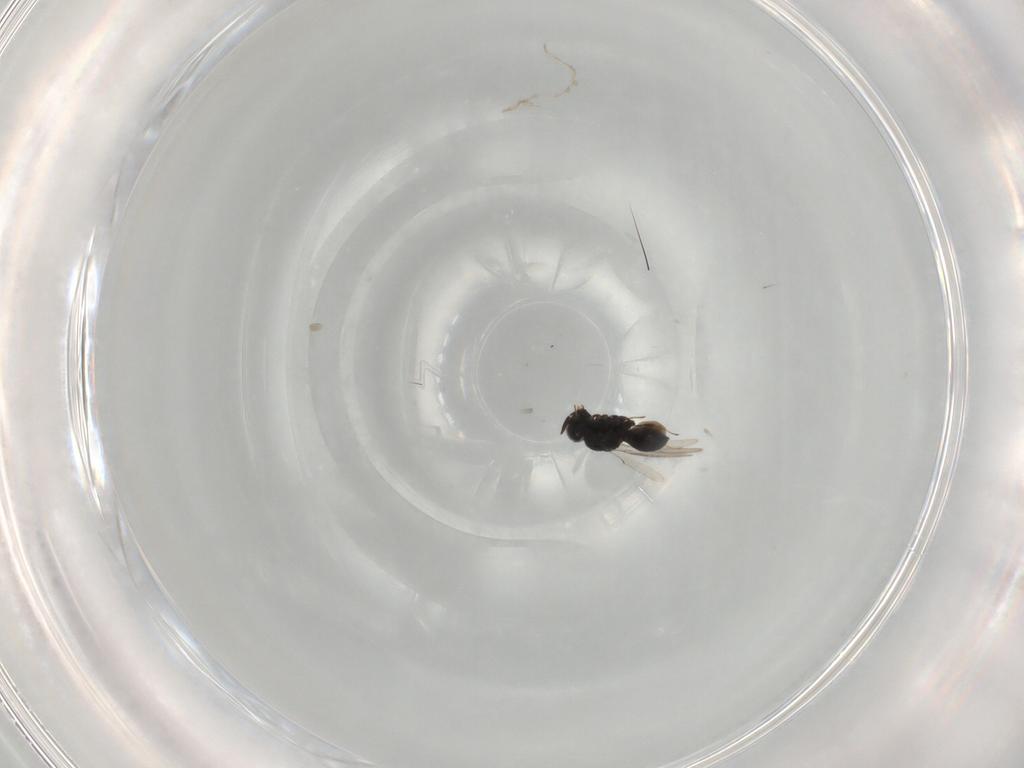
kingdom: Animalia
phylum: Arthropoda
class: Insecta
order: Hymenoptera
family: Scelionidae
